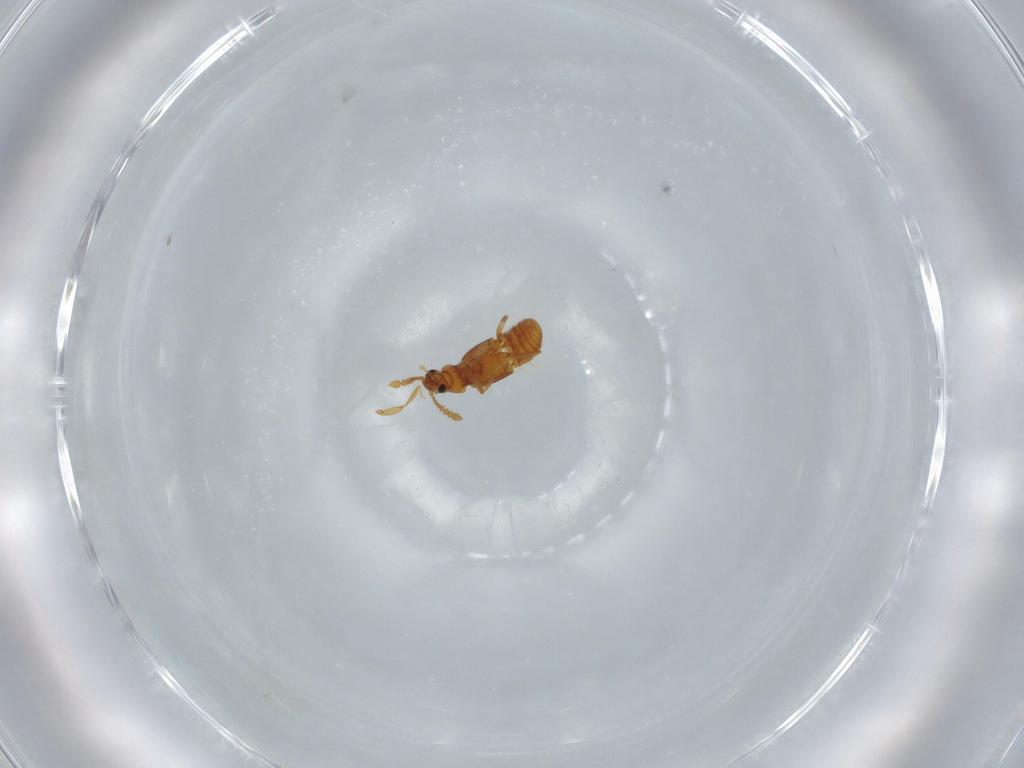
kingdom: Animalia
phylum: Arthropoda
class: Insecta
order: Coleoptera
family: Staphylinidae
